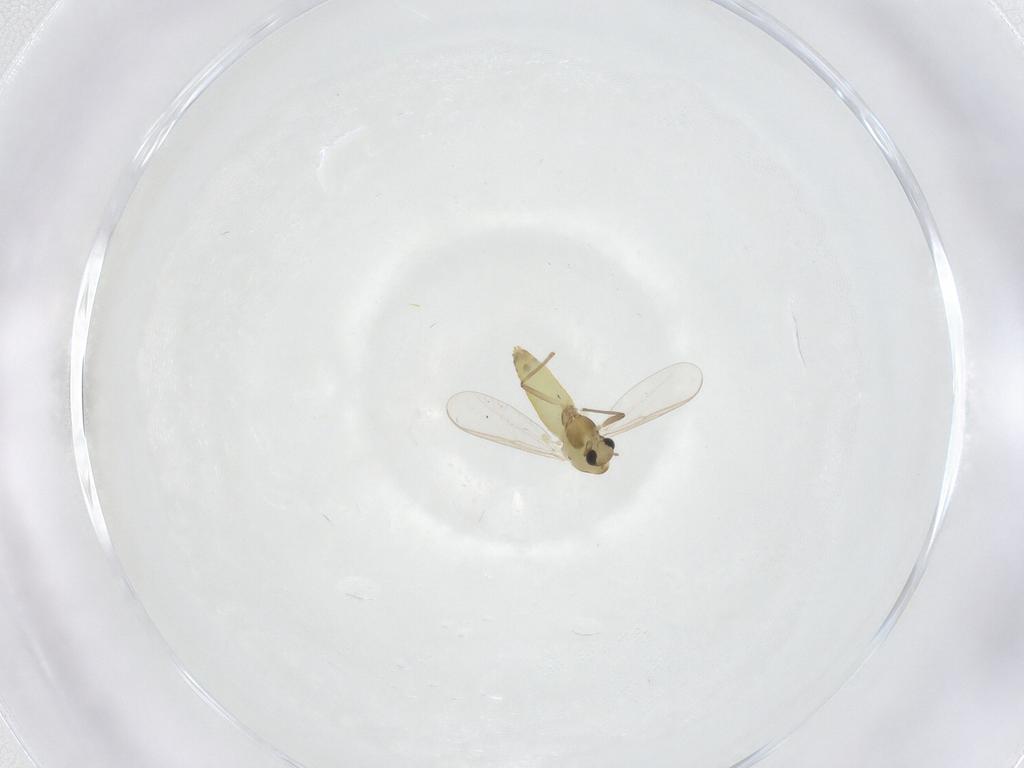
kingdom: Animalia
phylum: Arthropoda
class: Insecta
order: Diptera
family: Chironomidae
